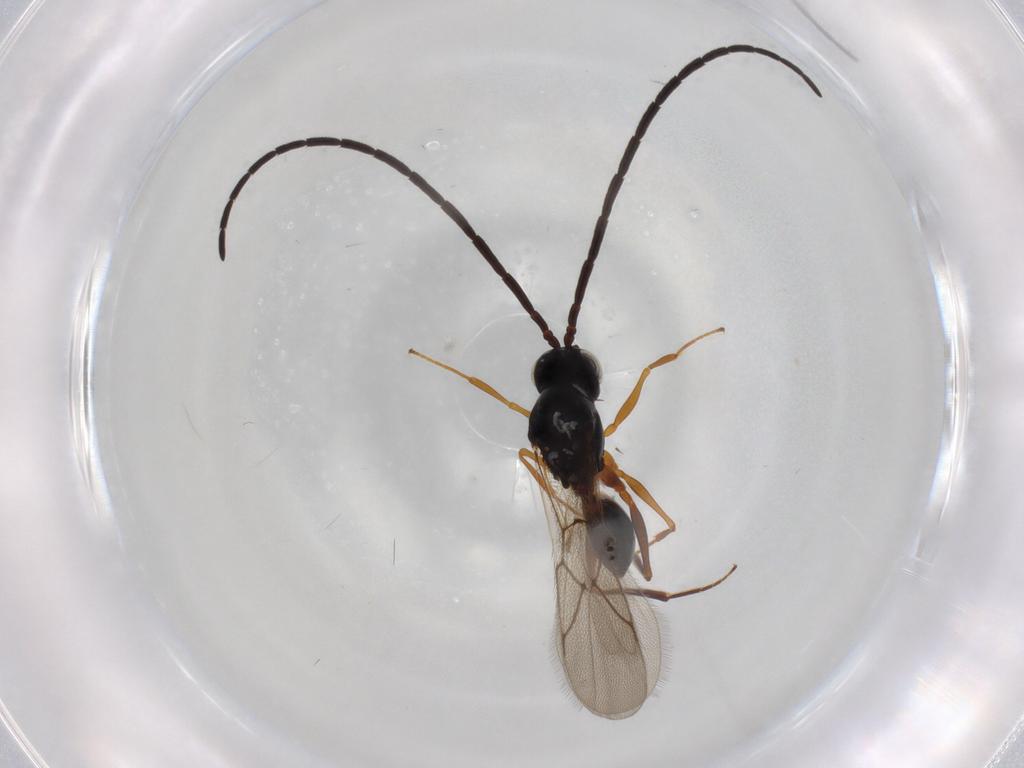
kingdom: Animalia
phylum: Arthropoda
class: Insecta
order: Hymenoptera
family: Figitidae
